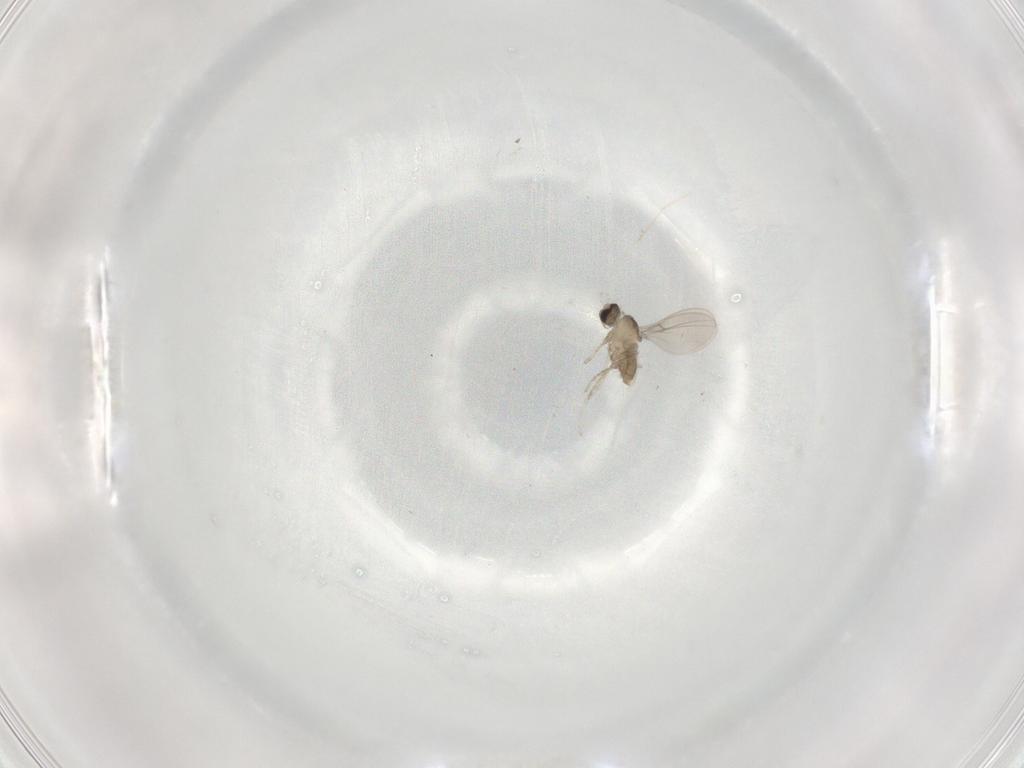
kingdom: Animalia
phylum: Arthropoda
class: Insecta
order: Diptera
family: Cecidomyiidae
